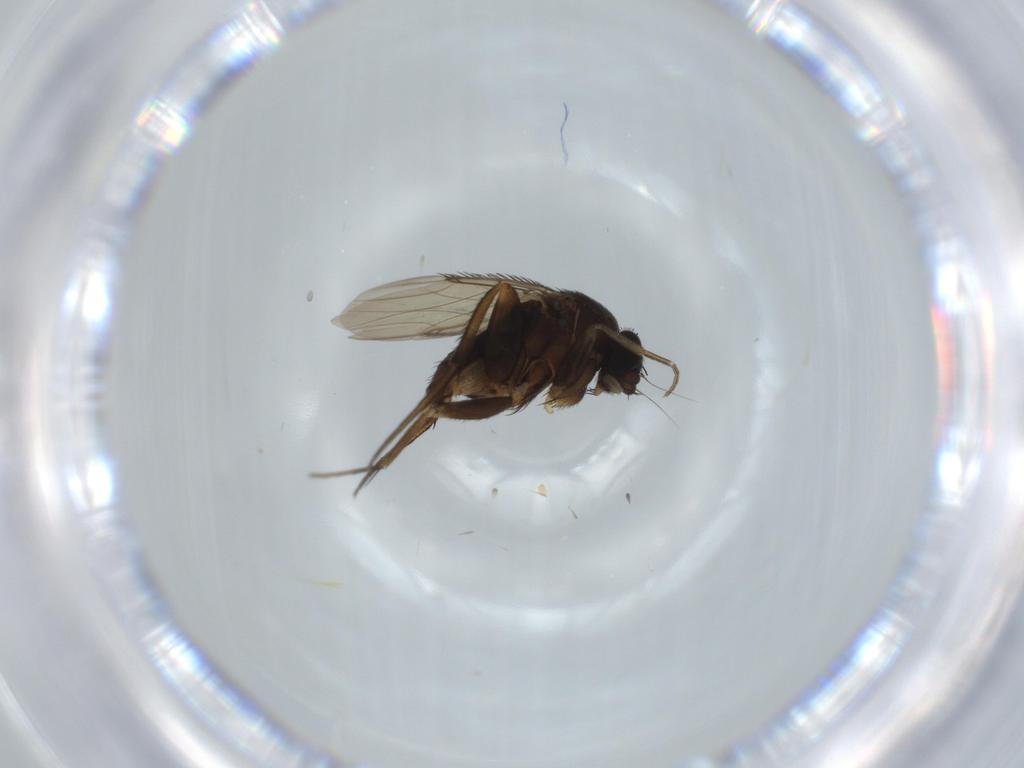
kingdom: Animalia
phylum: Arthropoda
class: Insecta
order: Diptera
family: Phoridae
